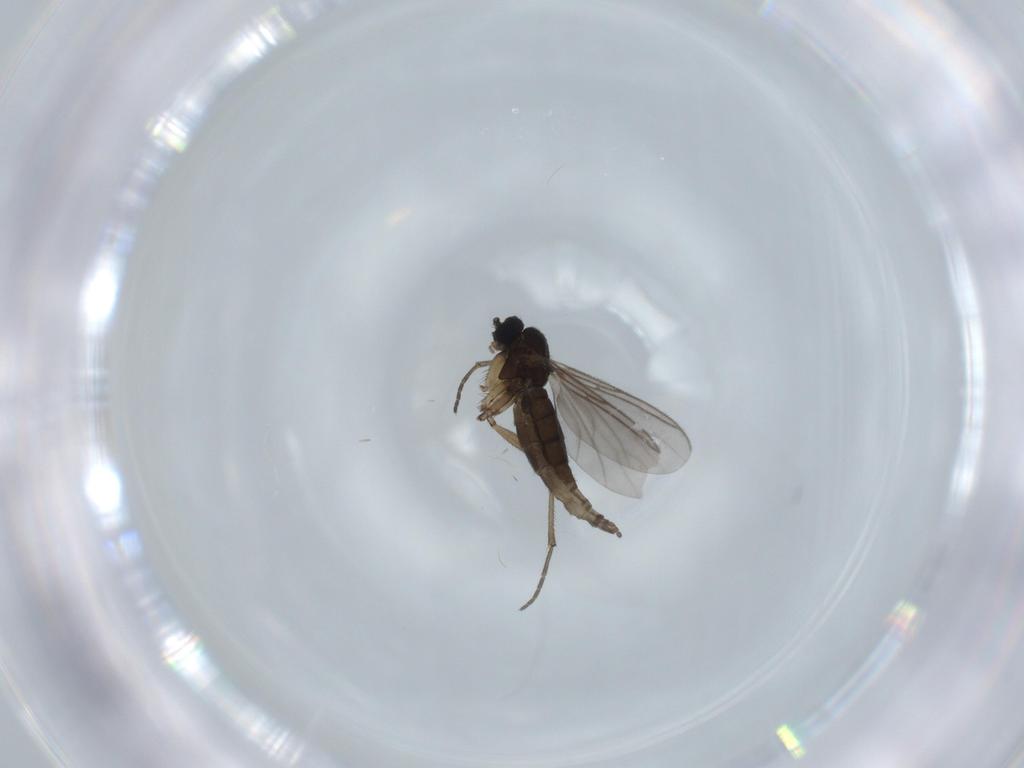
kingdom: Animalia
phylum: Arthropoda
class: Insecta
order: Diptera
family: Sciaridae
